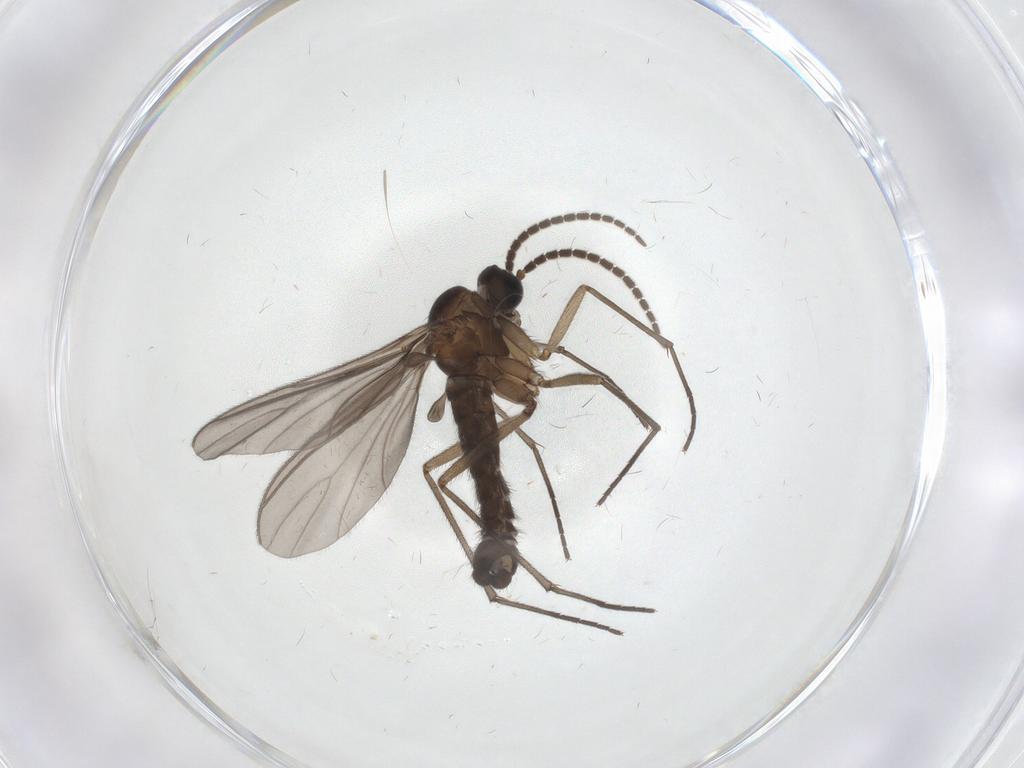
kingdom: Animalia
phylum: Arthropoda
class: Insecta
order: Diptera
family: Sciaridae
